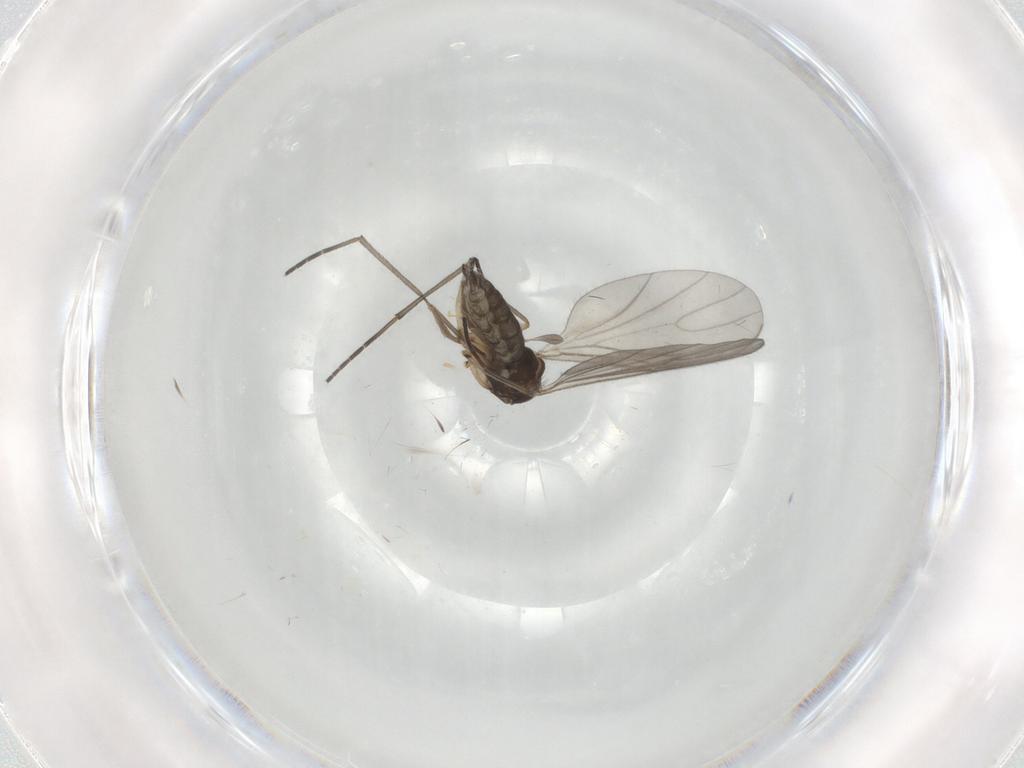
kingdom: Animalia
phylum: Arthropoda
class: Insecta
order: Diptera
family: Sciaridae
